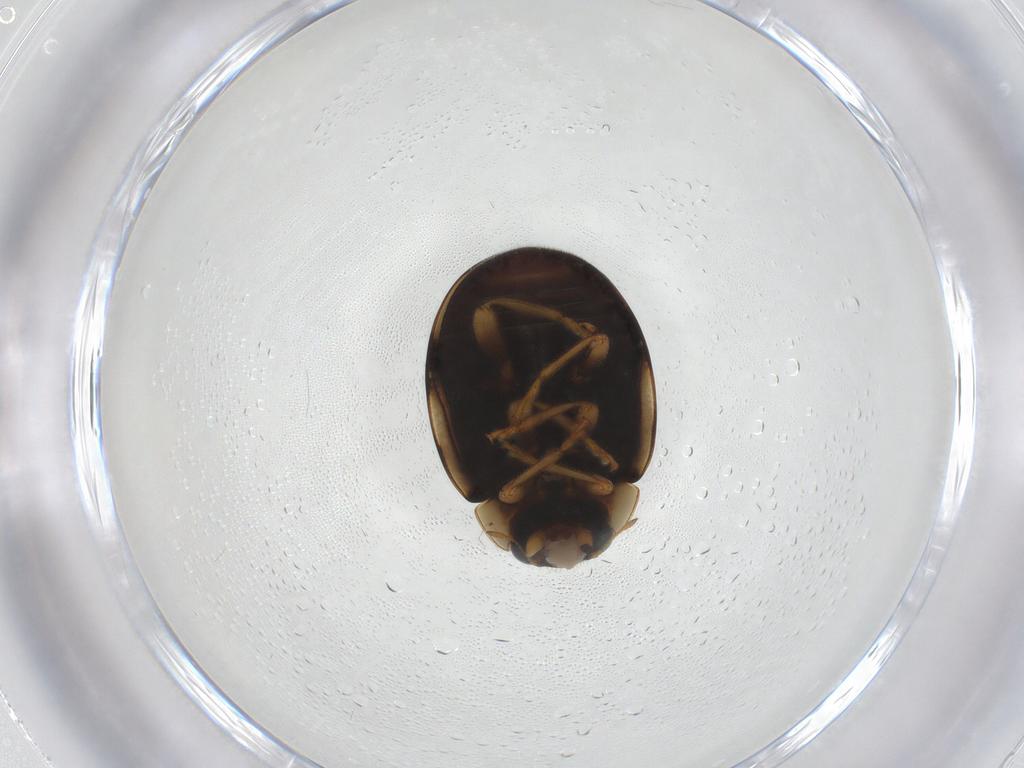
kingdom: Animalia
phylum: Arthropoda
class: Insecta
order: Coleoptera
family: Coccinellidae
